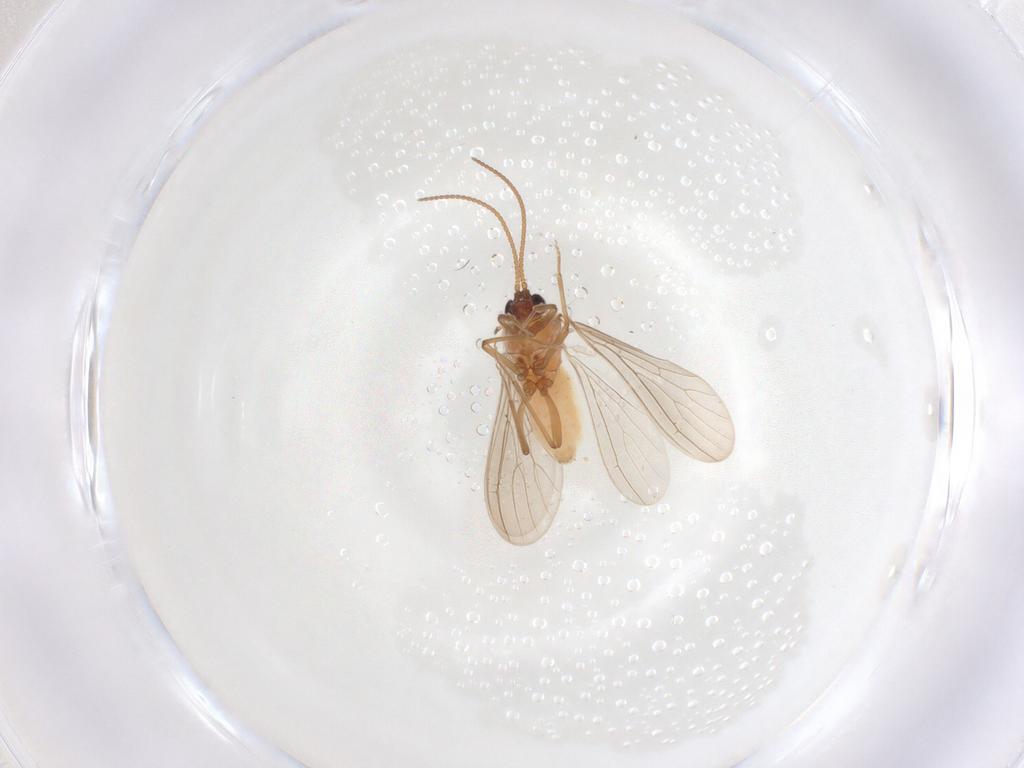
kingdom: Animalia
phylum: Arthropoda
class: Insecta
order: Neuroptera
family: Coniopterygidae
